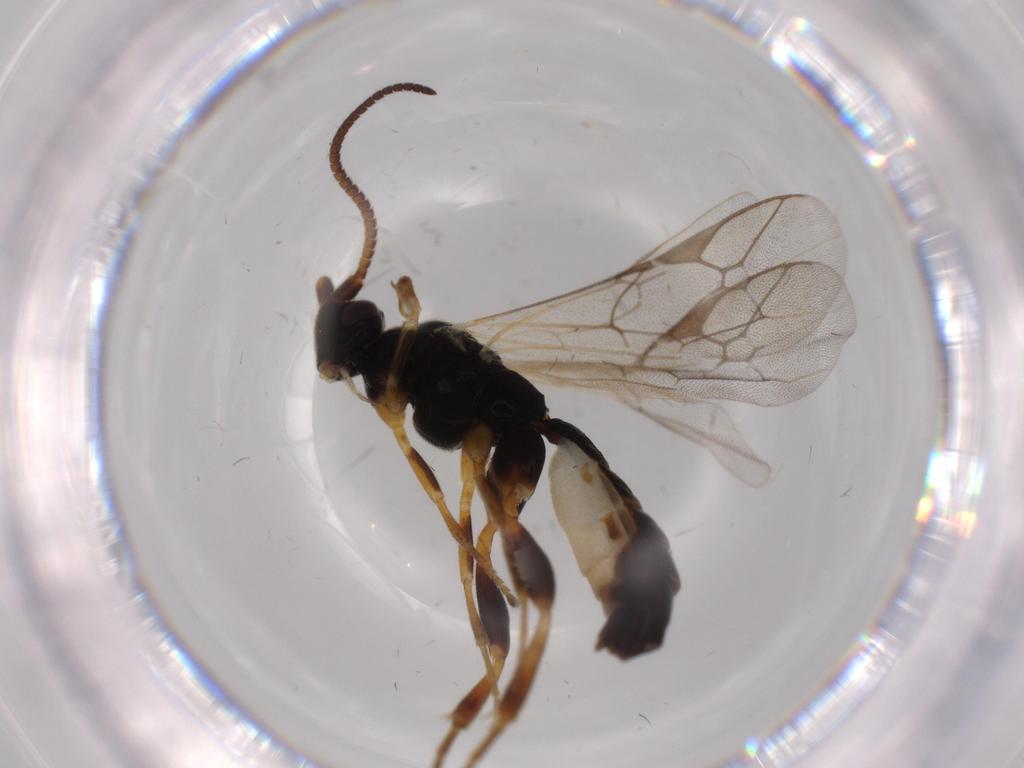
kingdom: Animalia
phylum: Arthropoda
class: Insecta
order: Hymenoptera
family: Ichneumonidae
